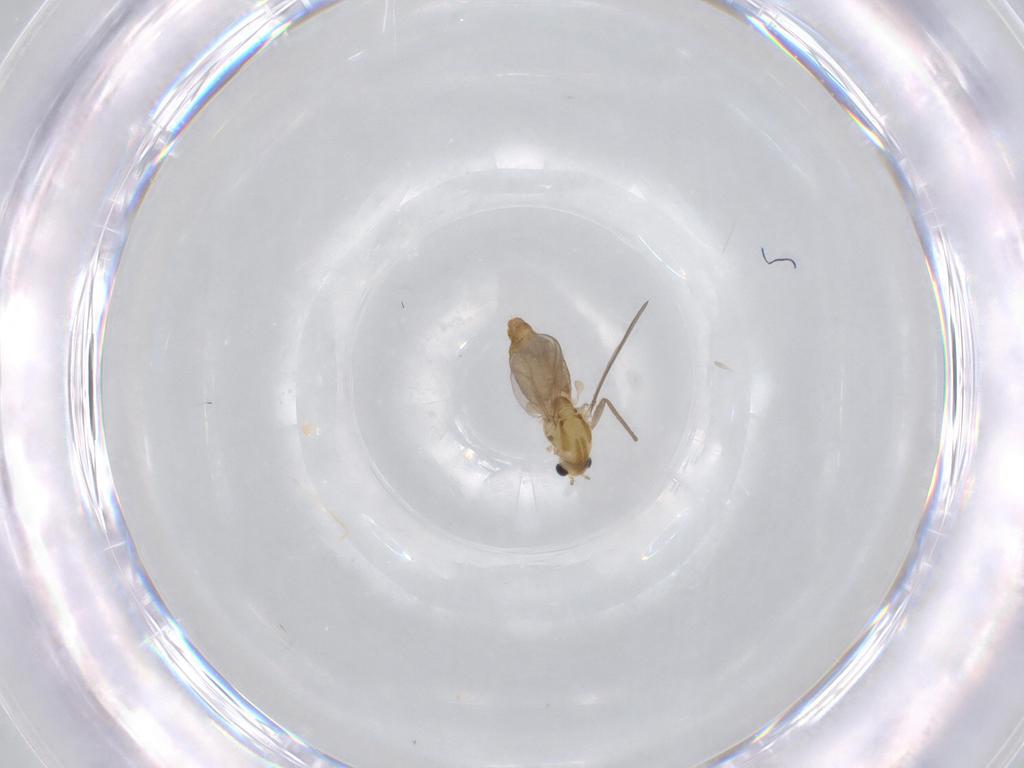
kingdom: Animalia
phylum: Arthropoda
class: Insecta
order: Diptera
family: Chironomidae
